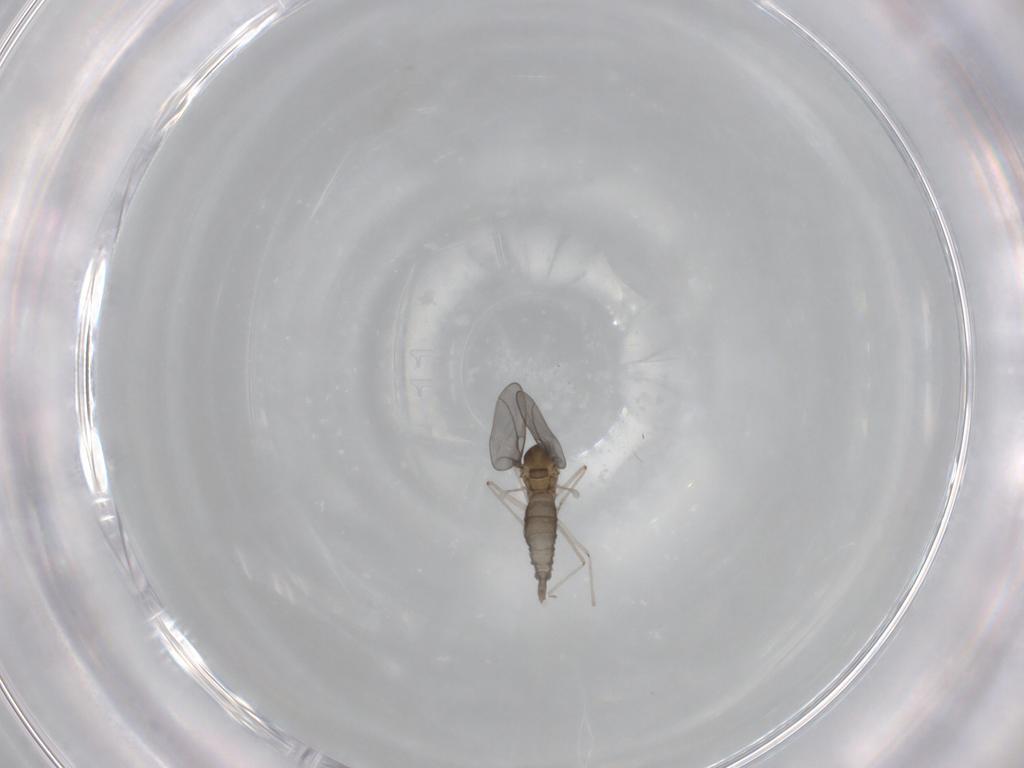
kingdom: Animalia
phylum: Arthropoda
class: Insecta
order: Diptera
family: Cecidomyiidae
